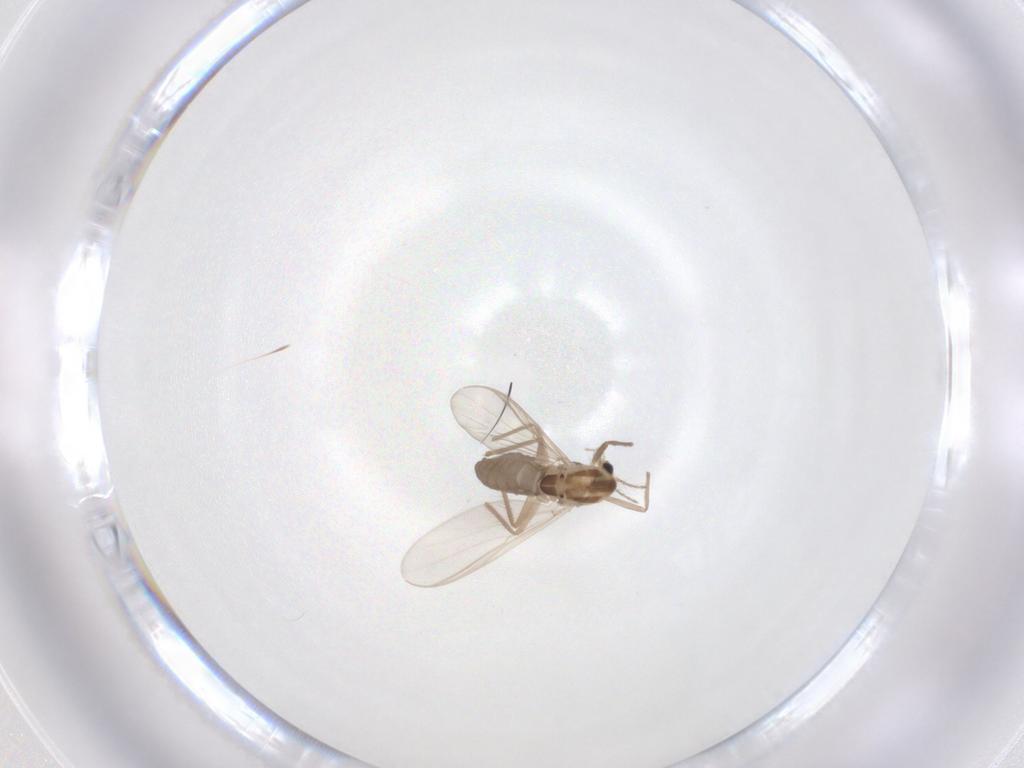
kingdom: Animalia
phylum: Arthropoda
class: Insecta
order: Diptera
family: Chironomidae
